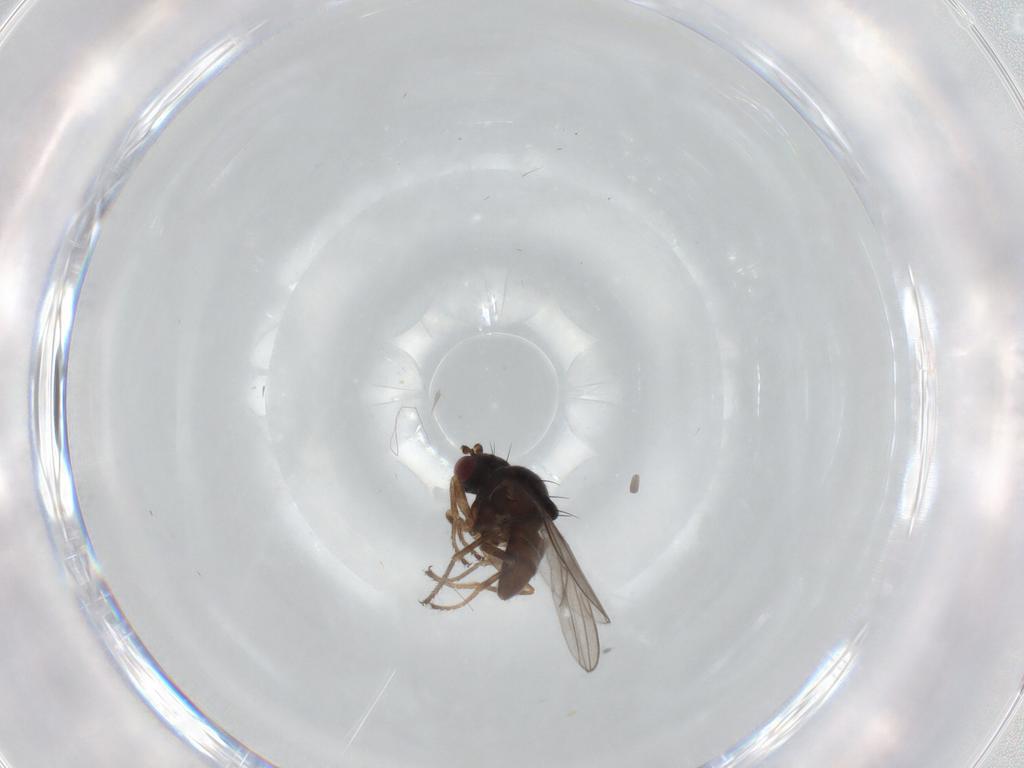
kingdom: Animalia
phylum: Arthropoda
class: Insecta
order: Diptera
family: Ephydridae
